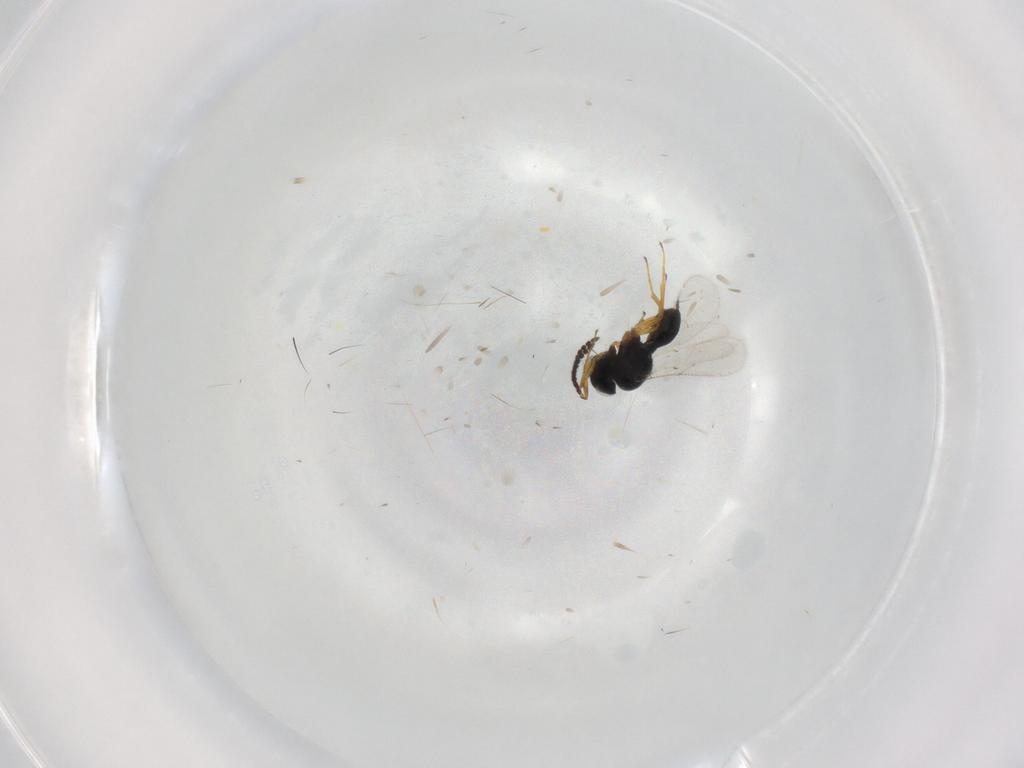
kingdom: Animalia
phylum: Arthropoda
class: Insecta
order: Hymenoptera
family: Scelionidae
